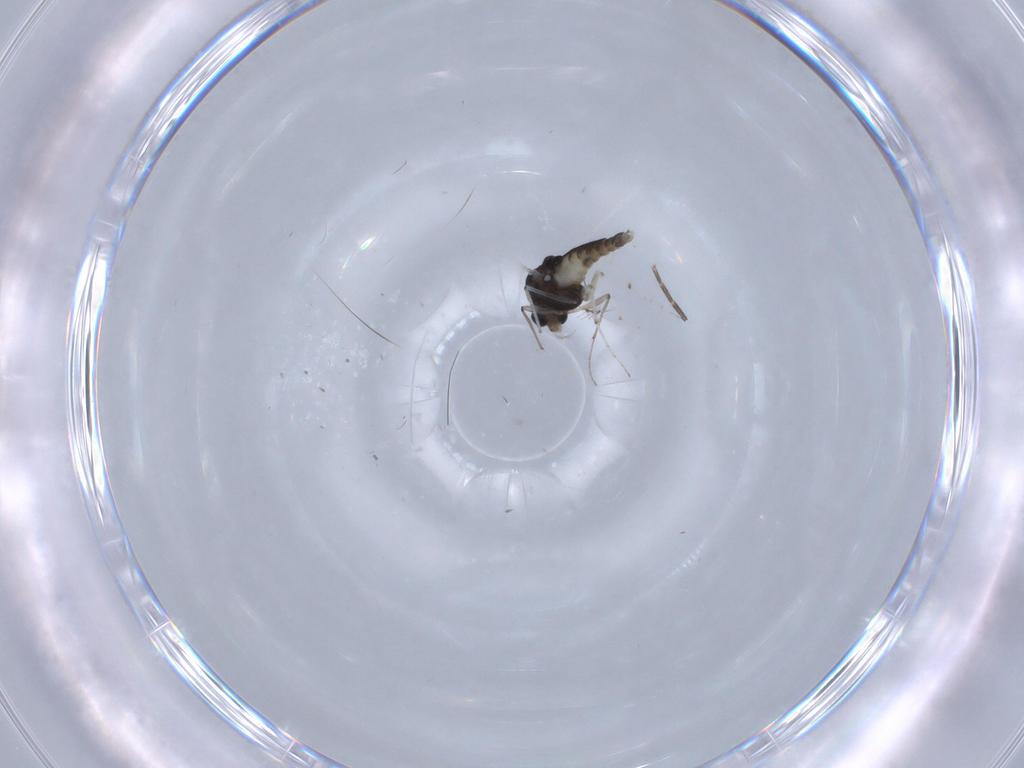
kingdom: Animalia
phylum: Arthropoda
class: Insecta
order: Diptera
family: Chironomidae
